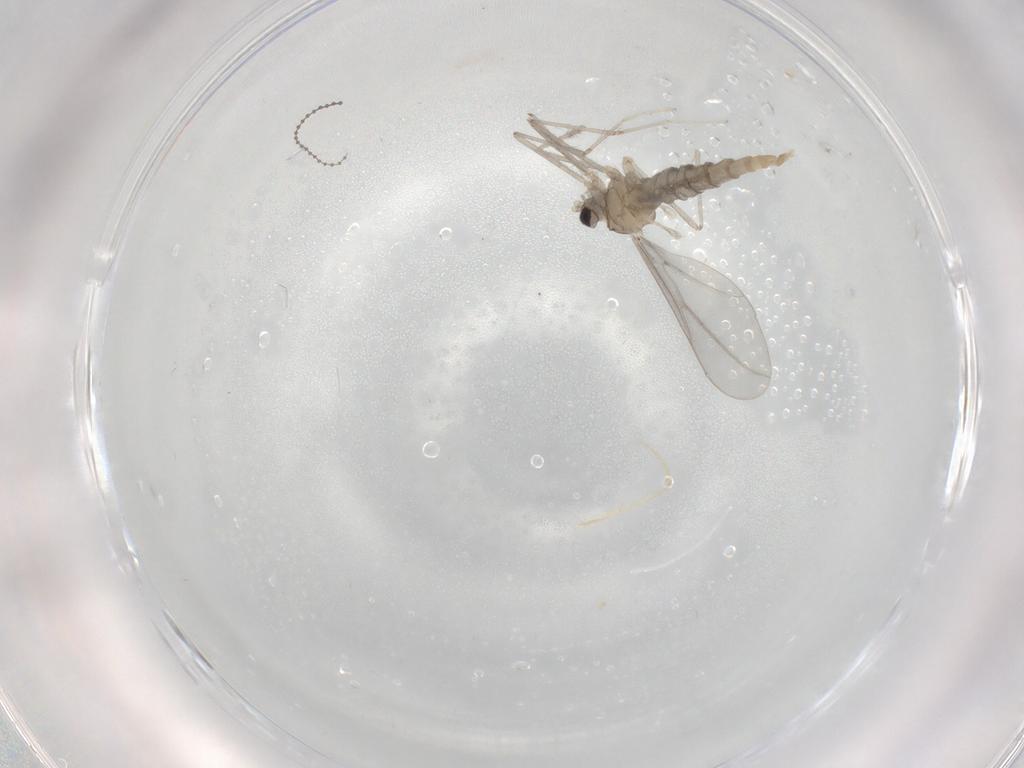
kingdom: Animalia
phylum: Arthropoda
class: Insecta
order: Diptera
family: Cecidomyiidae
